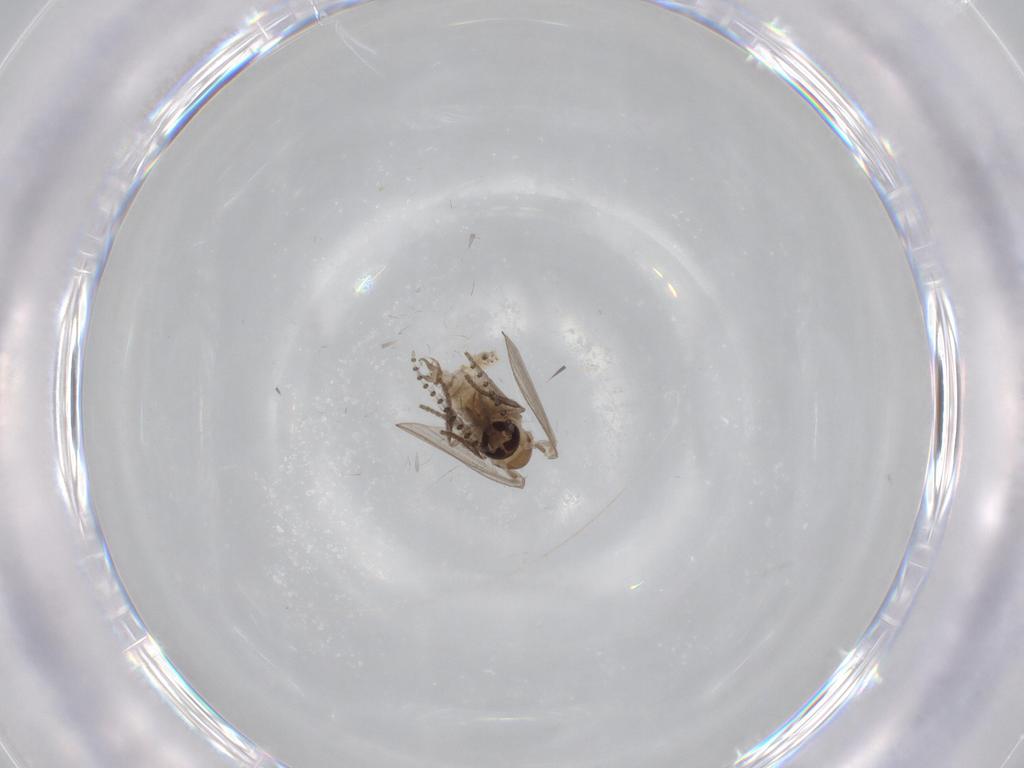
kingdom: Animalia
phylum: Arthropoda
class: Insecta
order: Diptera
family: Psychodidae
